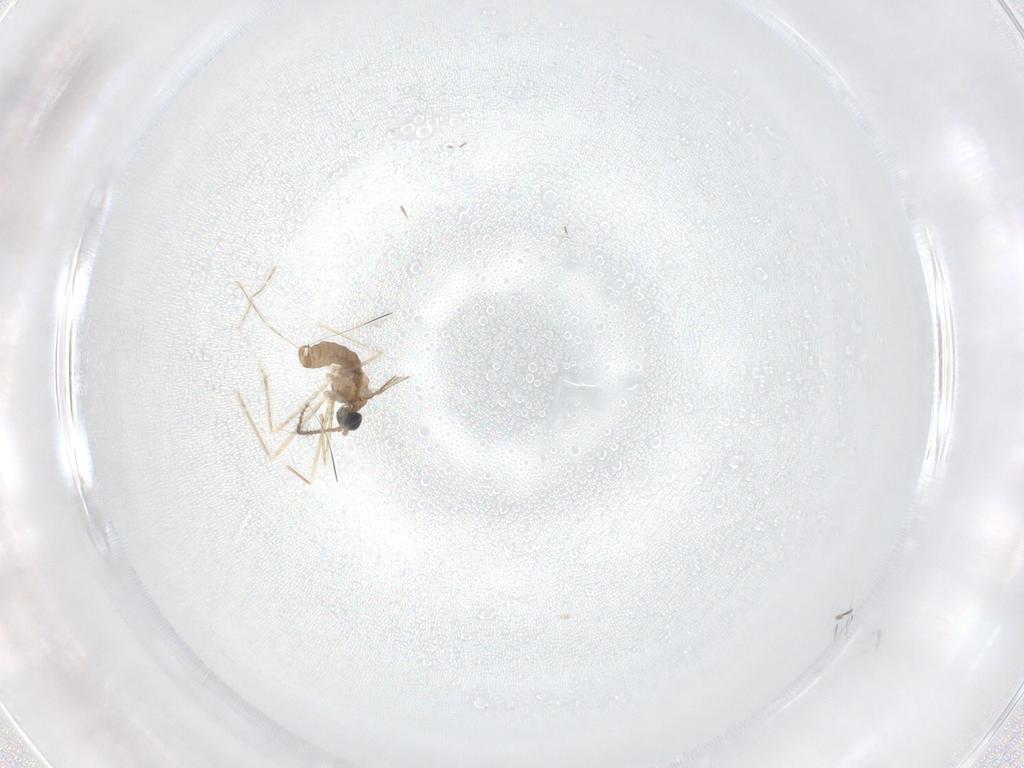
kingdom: Animalia
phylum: Arthropoda
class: Insecta
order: Diptera
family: Cecidomyiidae
